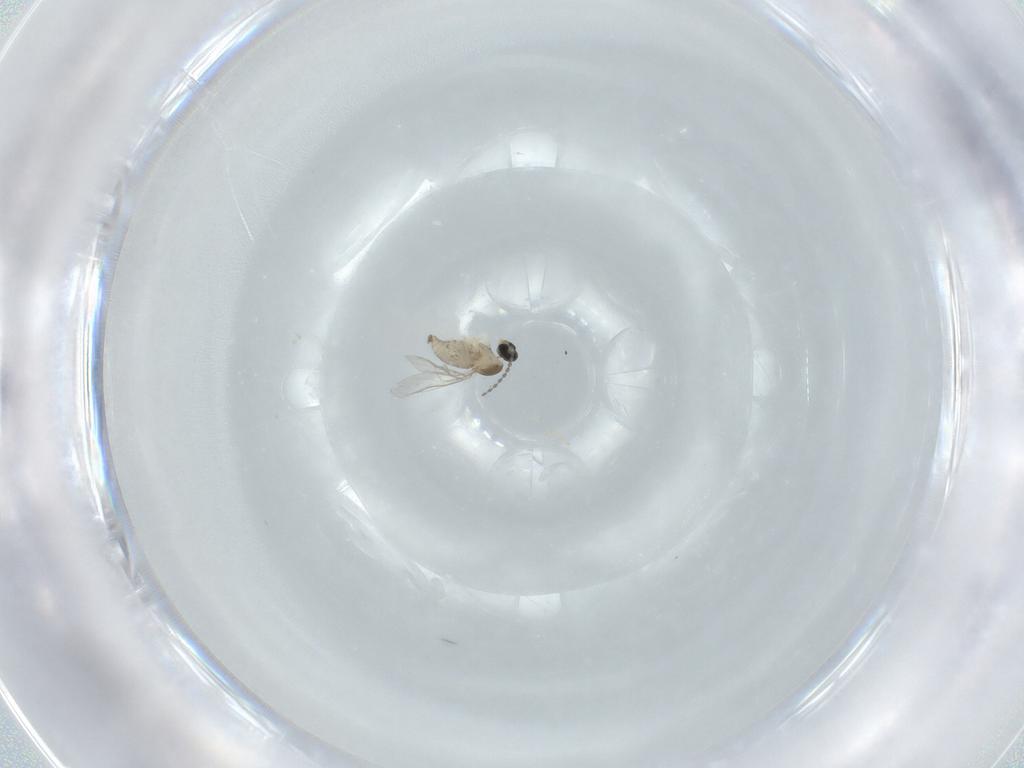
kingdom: Animalia
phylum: Arthropoda
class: Insecta
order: Diptera
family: Cecidomyiidae
